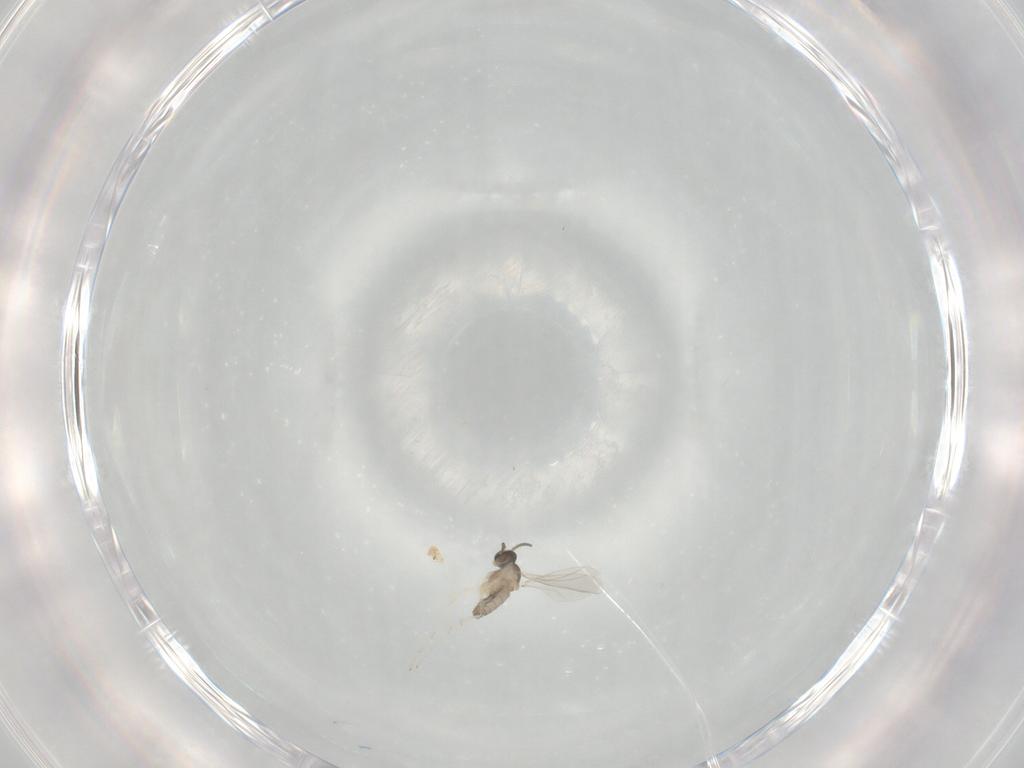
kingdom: Animalia
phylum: Arthropoda
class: Insecta
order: Diptera
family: Cecidomyiidae
